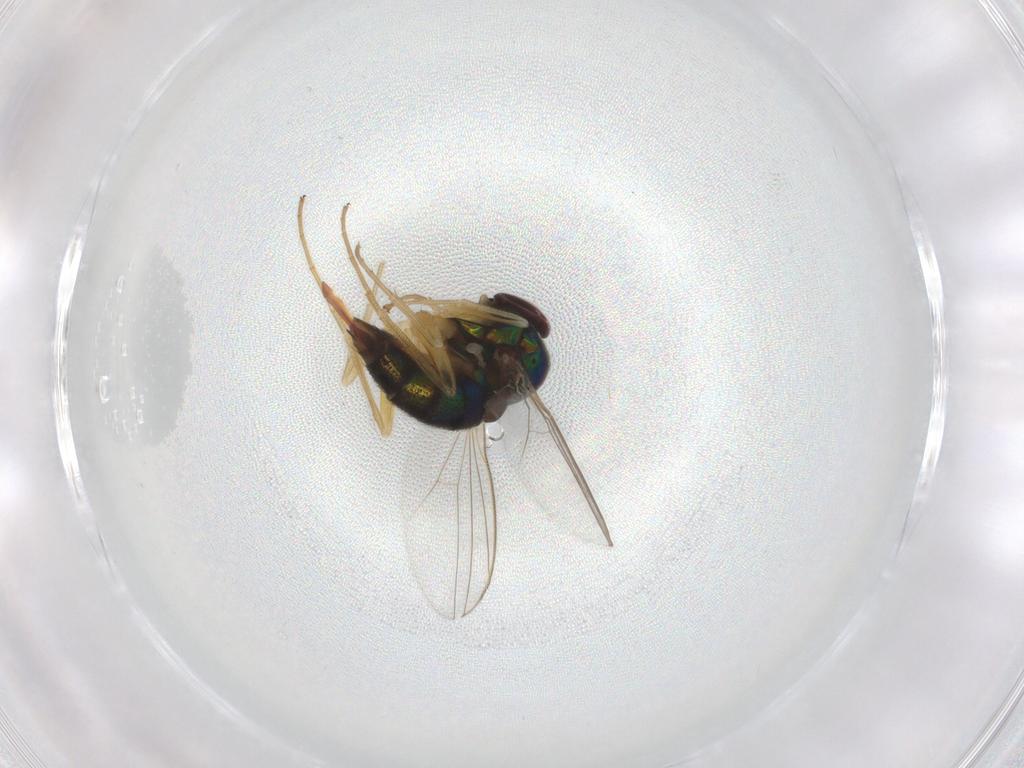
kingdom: Animalia
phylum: Arthropoda
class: Insecta
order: Diptera
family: Dolichopodidae
